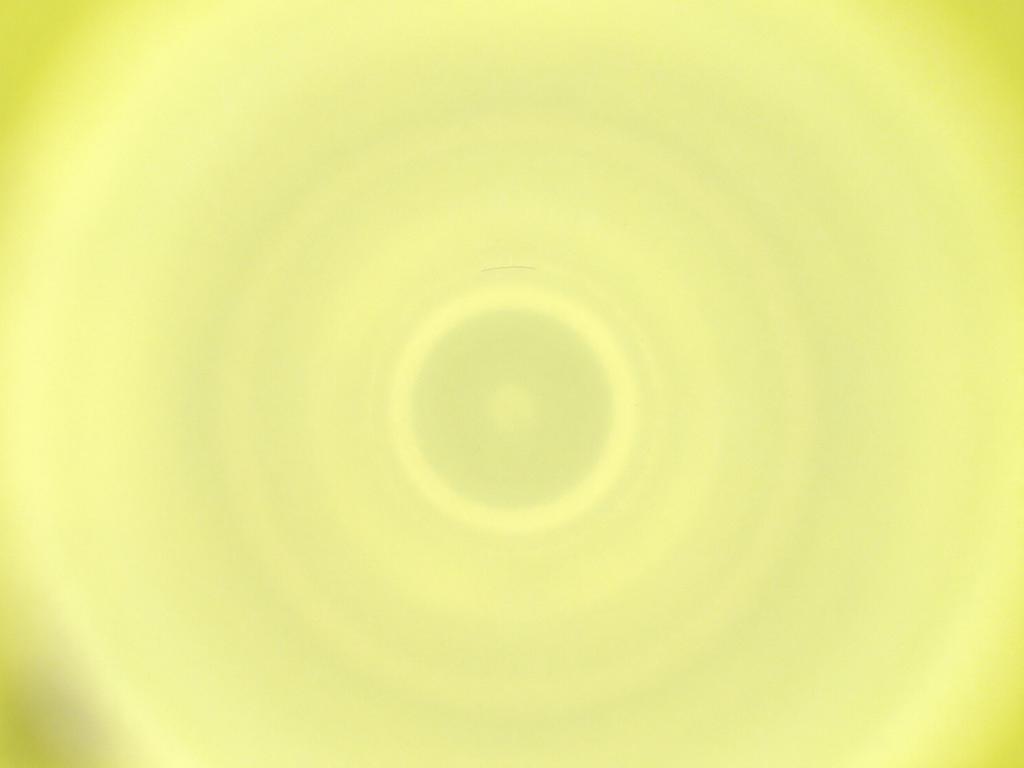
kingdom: Animalia
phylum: Arthropoda
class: Insecta
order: Diptera
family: Cecidomyiidae
